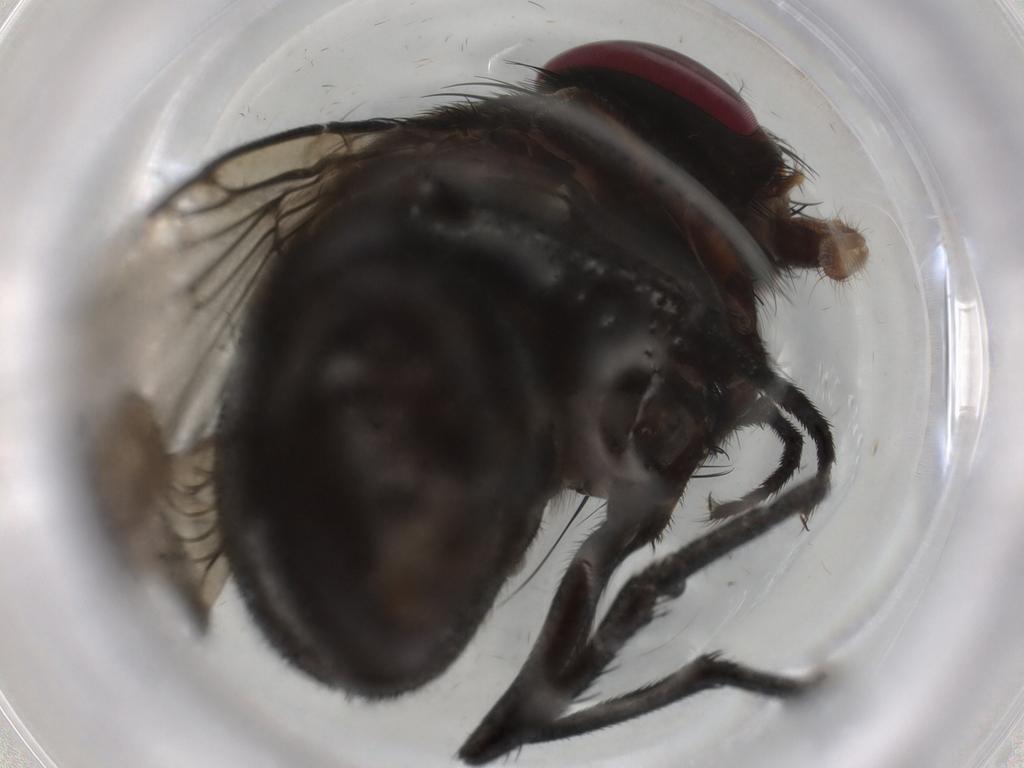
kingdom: Animalia
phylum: Arthropoda
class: Insecta
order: Diptera
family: Muscidae
